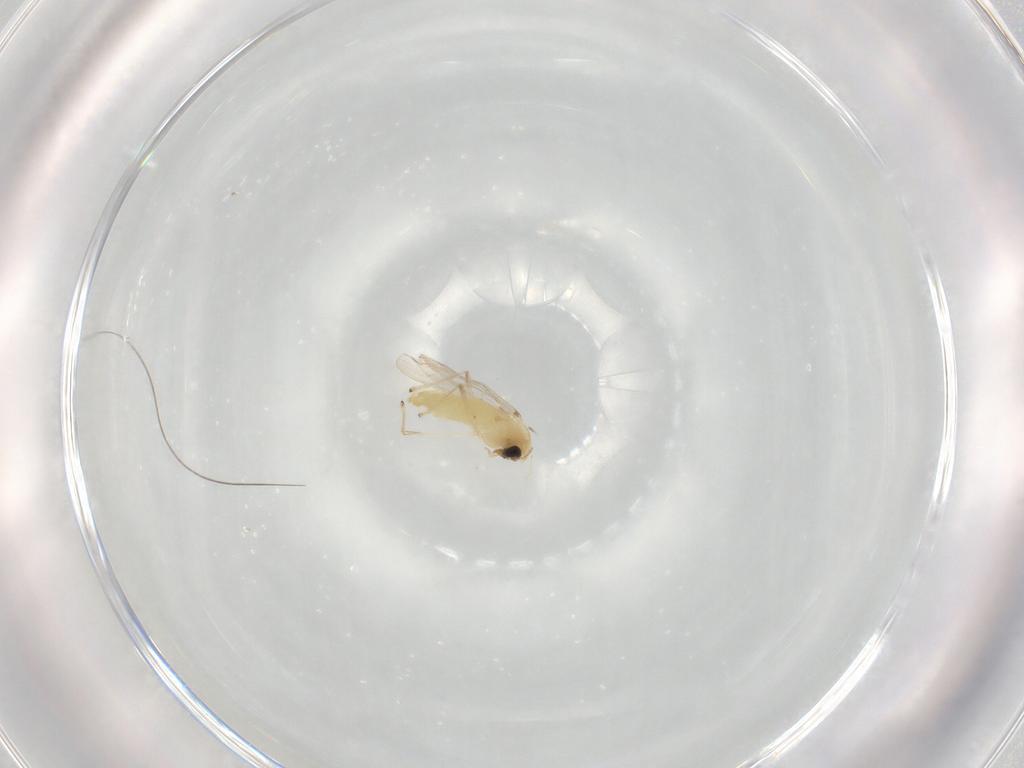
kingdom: Animalia
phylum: Arthropoda
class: Insecta
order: Diptera
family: Chironomidae
